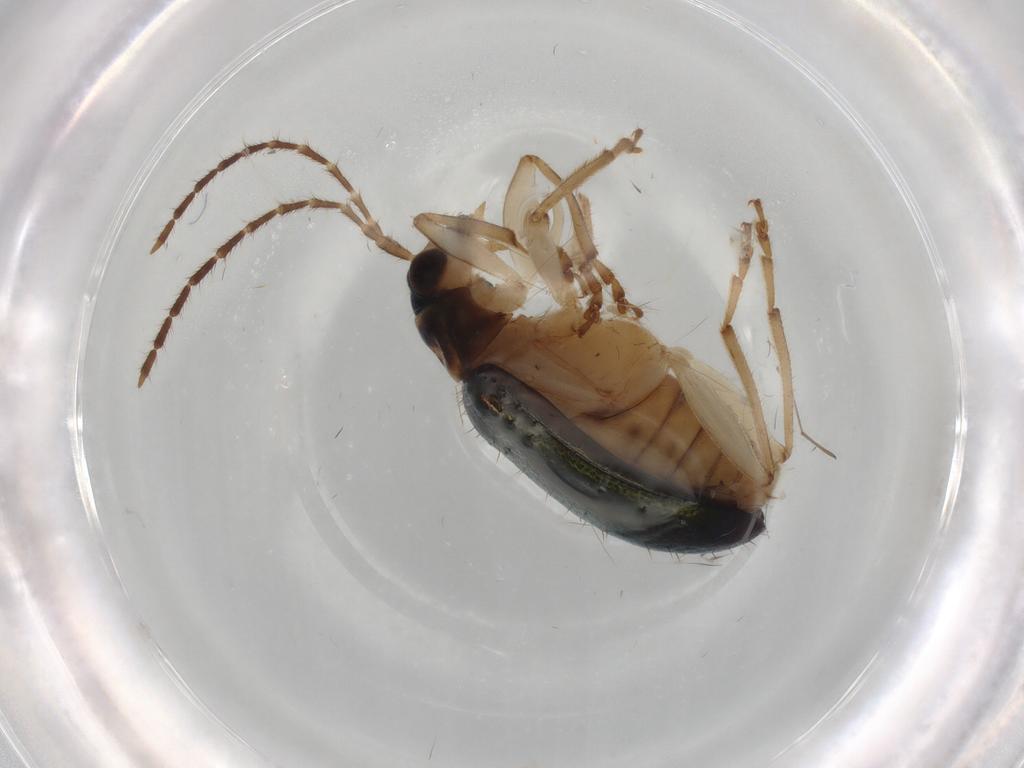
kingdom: Animalia
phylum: Arthropoda
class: Insecta
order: Coleoptera
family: Chrysomelidae
